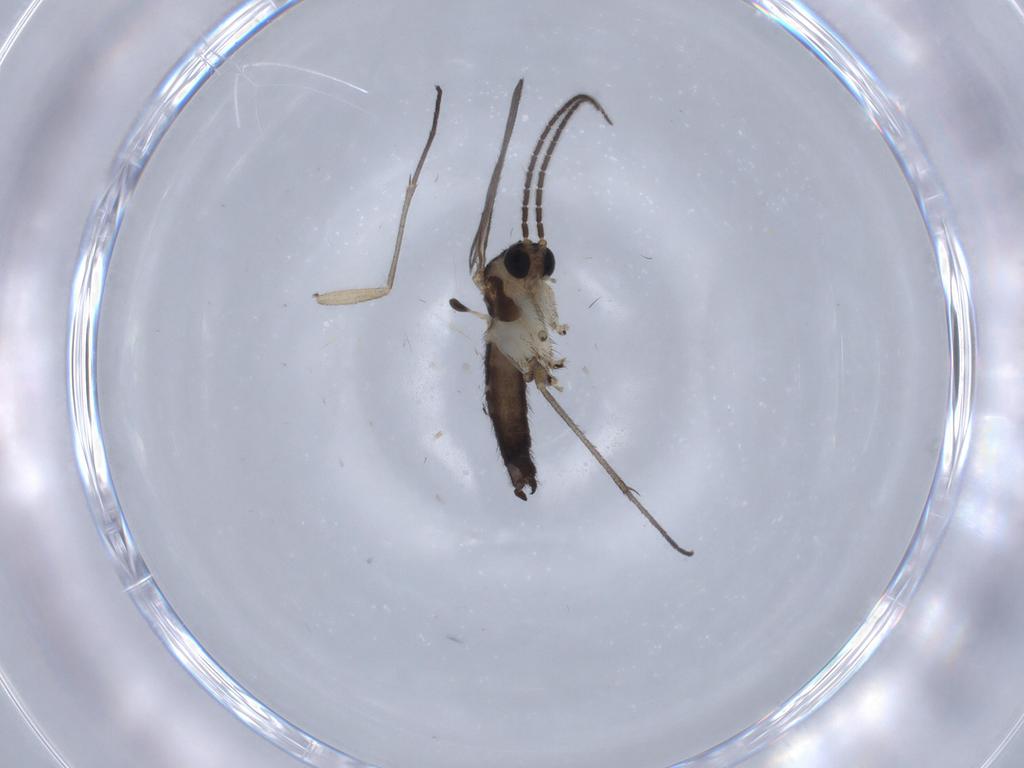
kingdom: Animalia
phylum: Arthropoda
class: Insecta
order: Diptera
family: Sciaridae
